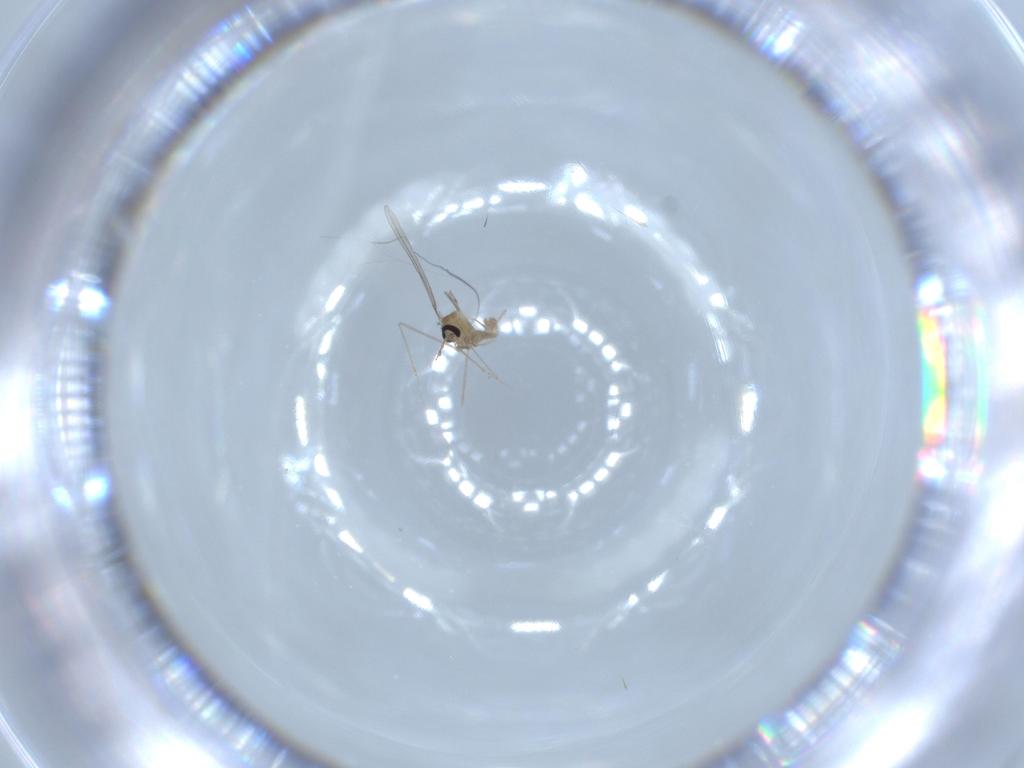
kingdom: Animalia
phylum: Arthropoda
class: Insecta
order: Diptera
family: Cecidomyiidae
